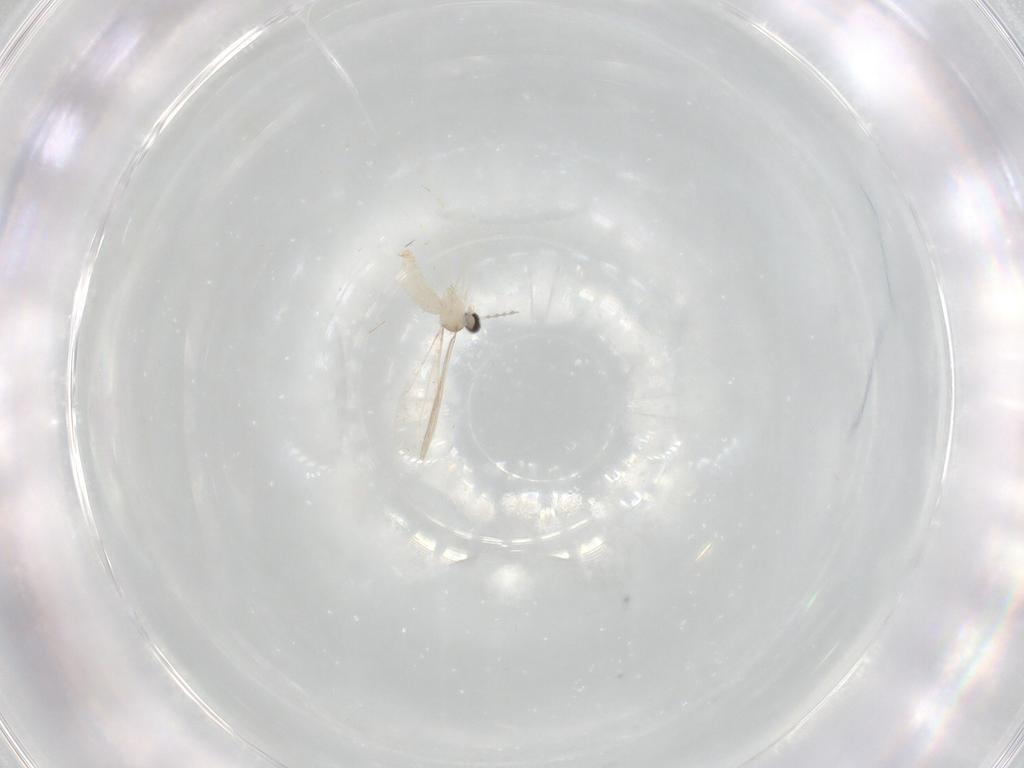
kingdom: Animalia
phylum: Arthropoda
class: Insecta
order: Diptera
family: Cecidomyiidae
